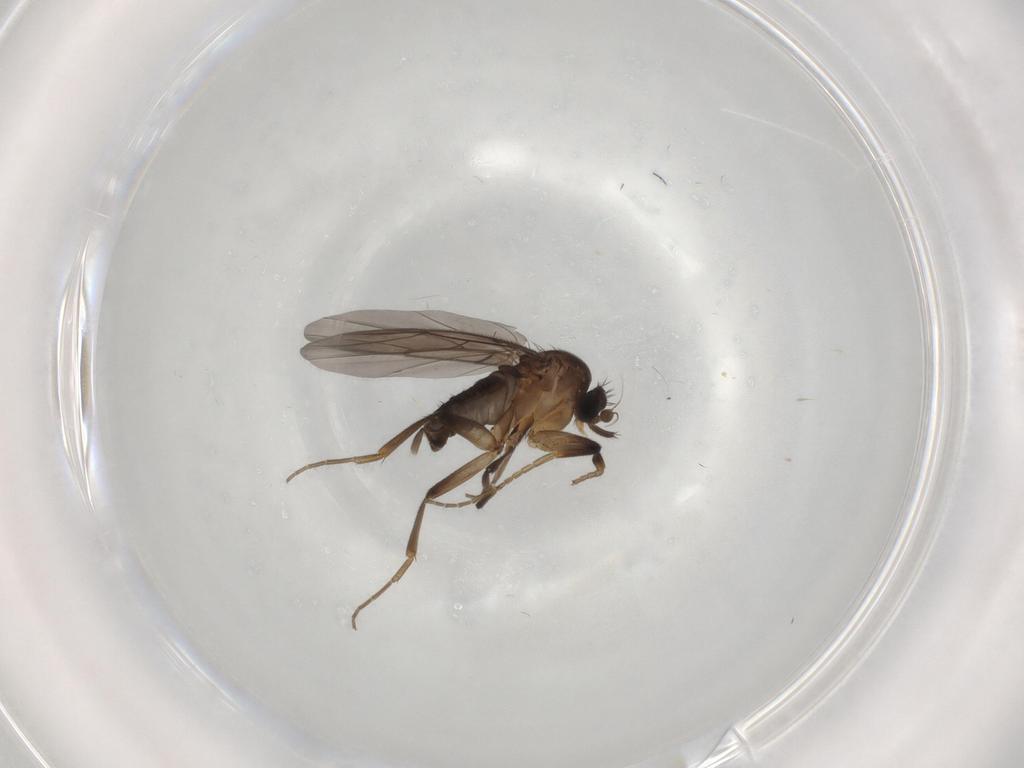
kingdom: Animalia
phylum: Arthropoda
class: Insecta
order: Diptera
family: Phoridae
